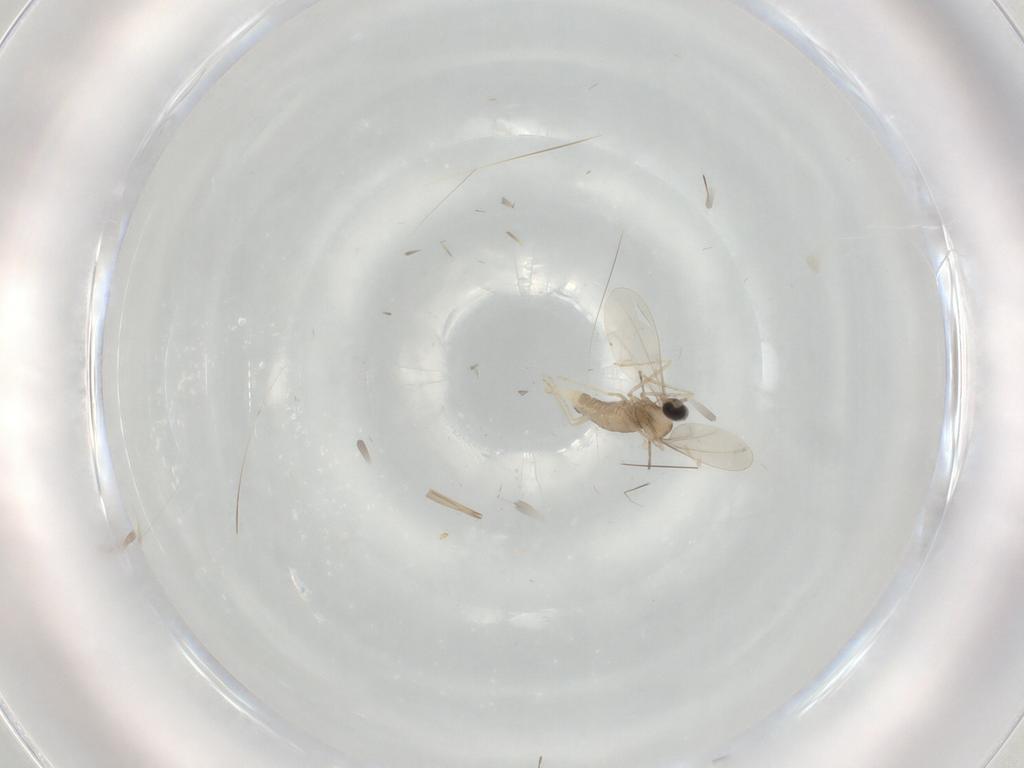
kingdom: Animalia
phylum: Arthropoda
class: Insecta
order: Diptera
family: Cecidomyiidae
